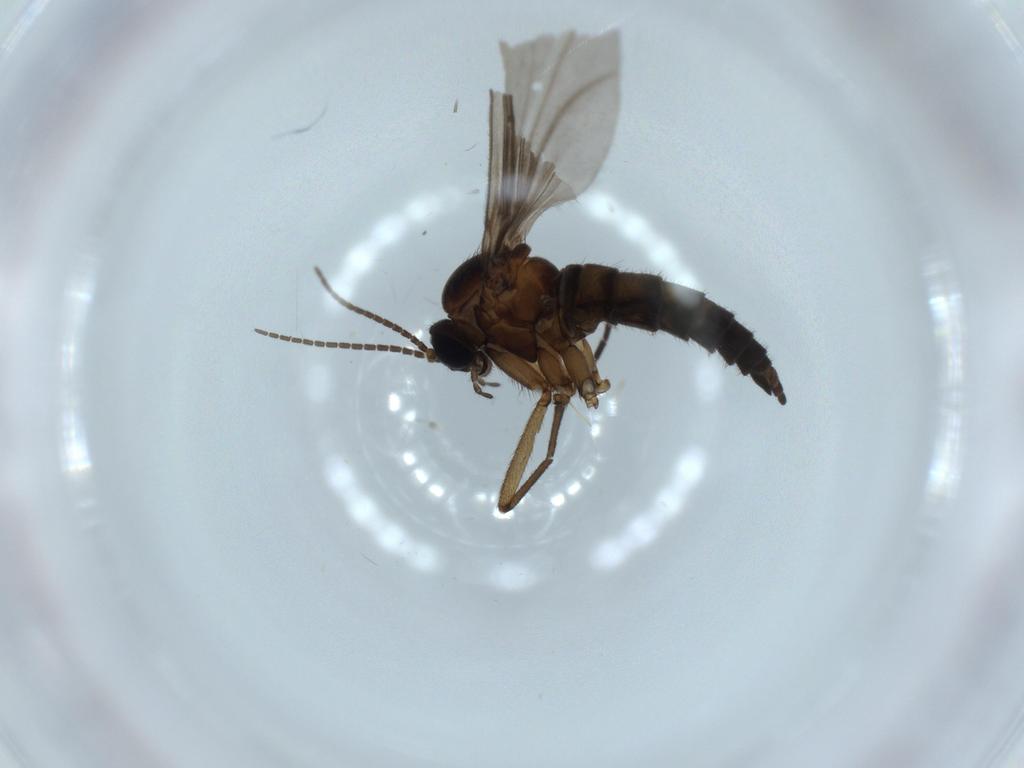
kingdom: Animalia
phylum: Arthropoda
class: Insecta
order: Diptera
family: Sciaridae
